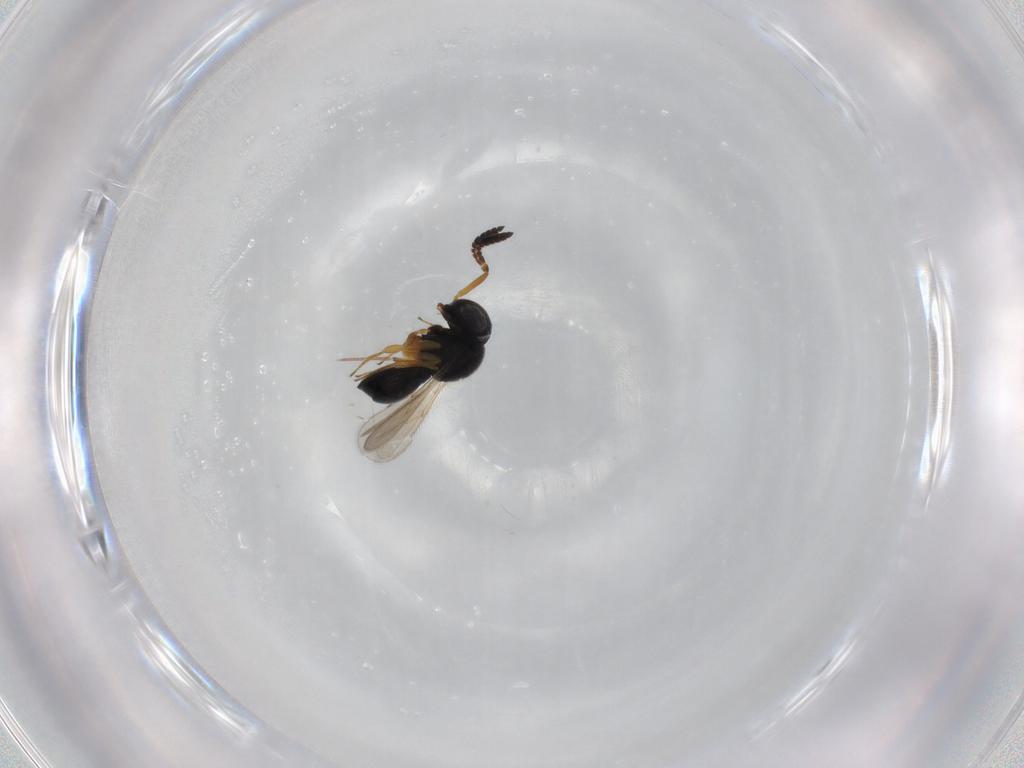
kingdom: Animalia
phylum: Arthropoda
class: Insecta
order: Hymenoptera
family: Scelionidae
